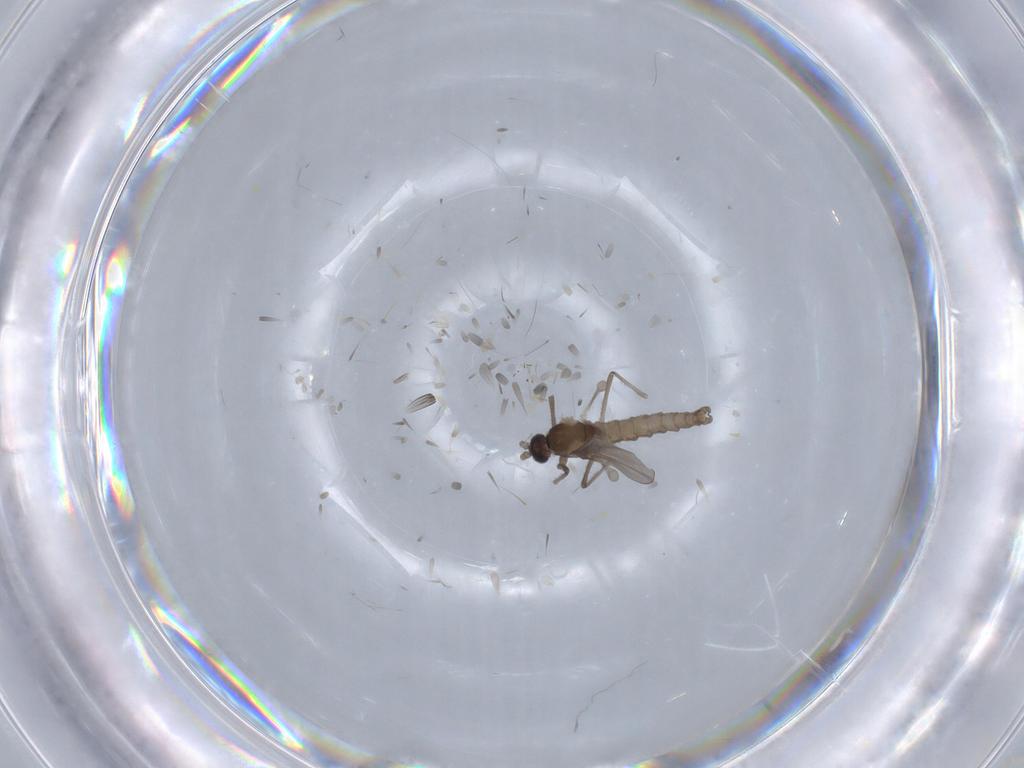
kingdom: Animalia
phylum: Arthropoda
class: Insecta
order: Diptera
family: Cecidomyiidae
